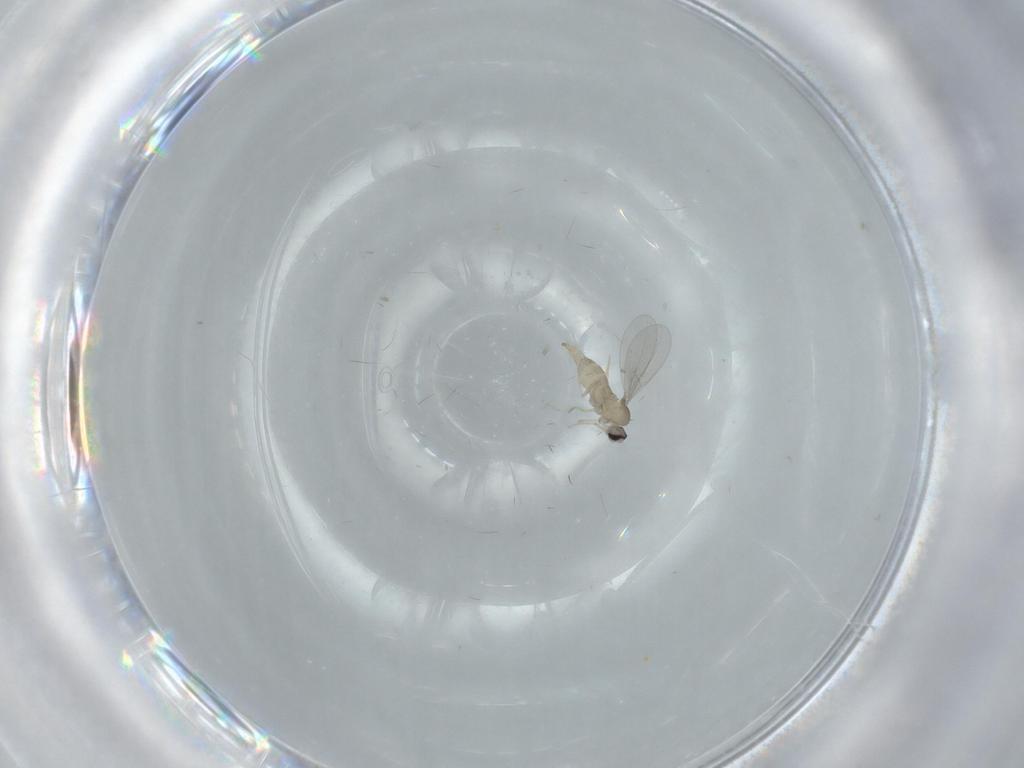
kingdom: Animalia
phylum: Arthropoda
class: Insecta
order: Diptera
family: Cecidomyiidae
